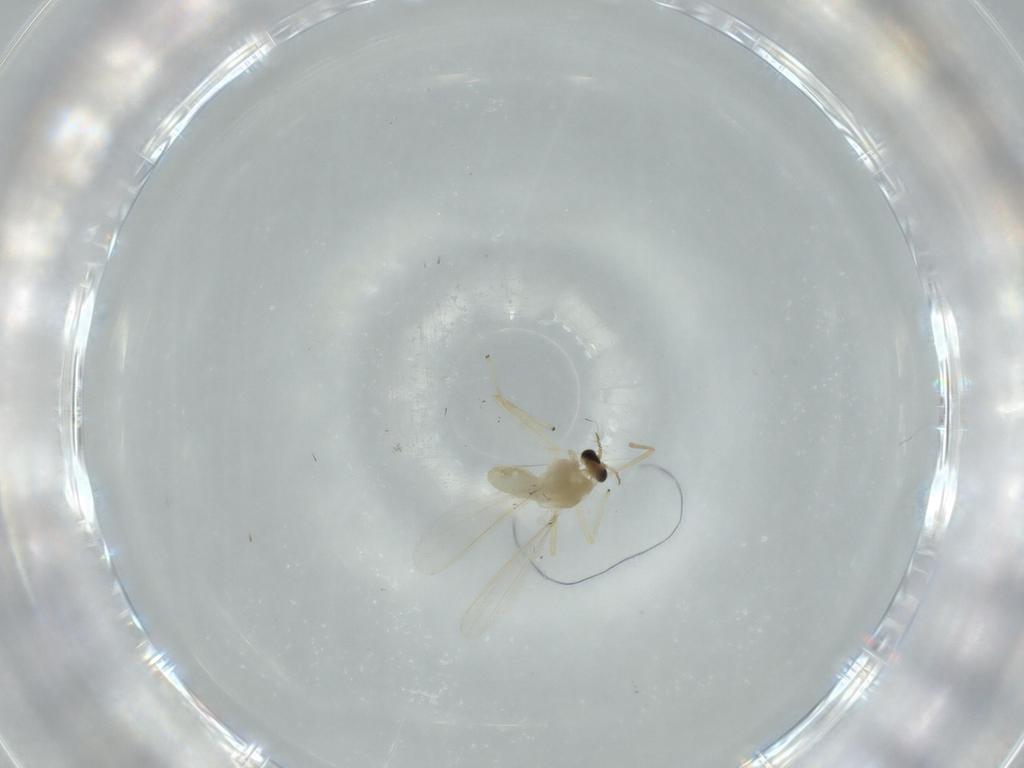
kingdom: Animalia
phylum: Arthropoda
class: Insecta
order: Diptera
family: Chironomidae
